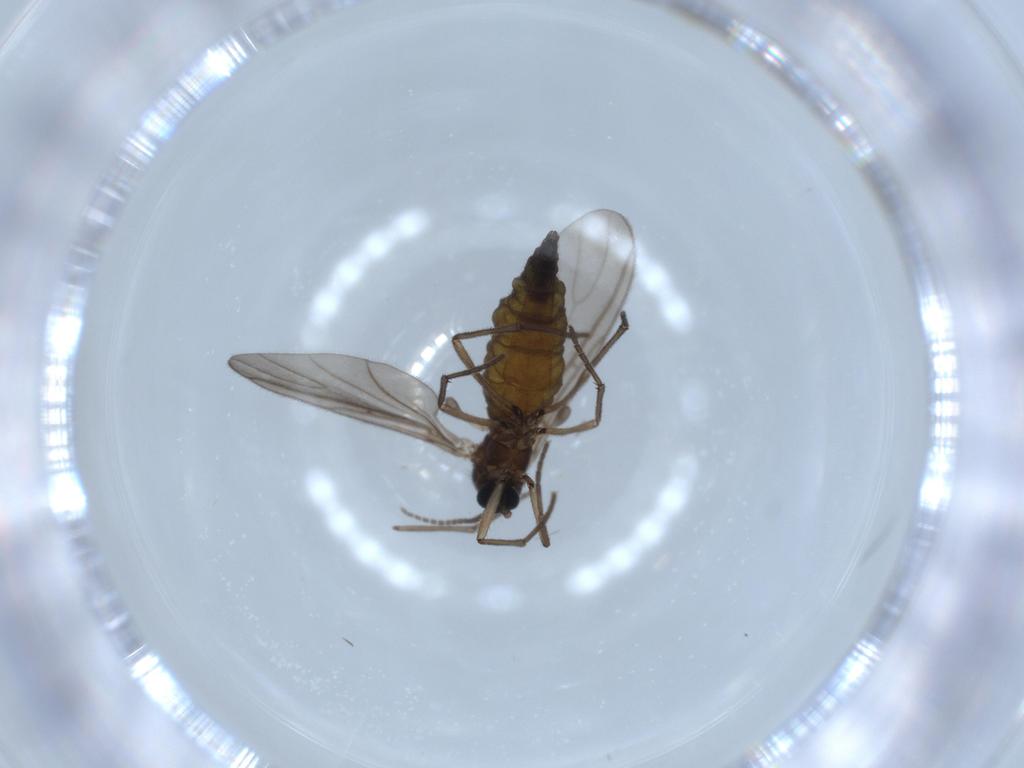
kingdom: Animalia
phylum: Arthropoda
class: Insecta
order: Diptera
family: Sciaridae
